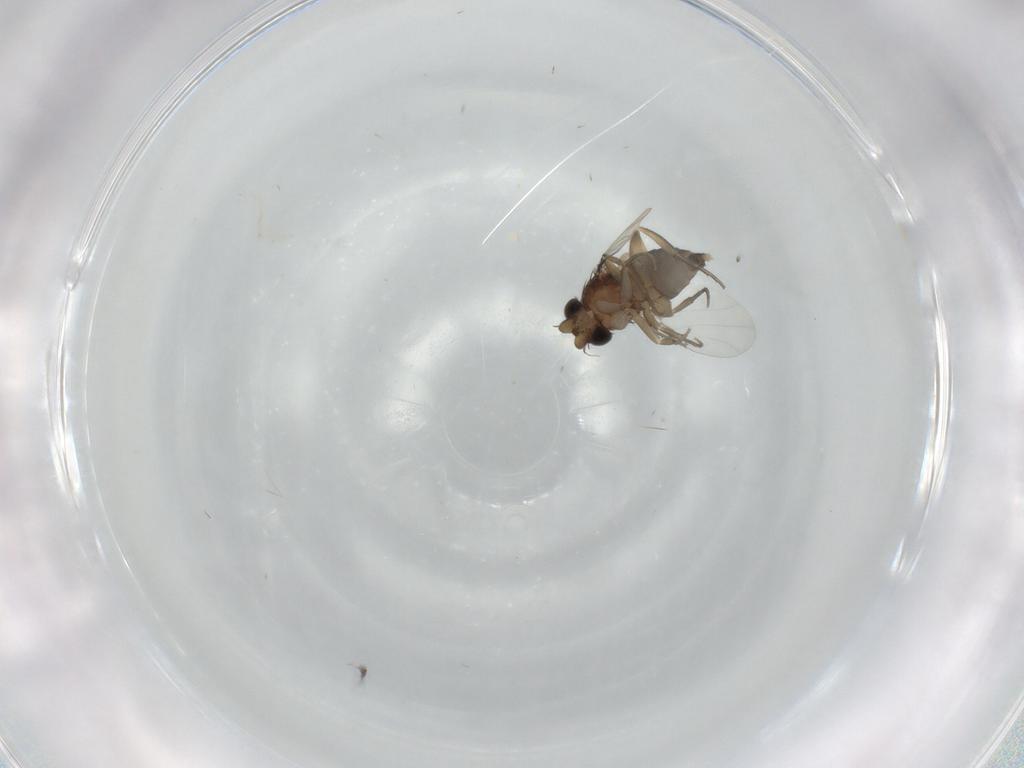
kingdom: Animalia
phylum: Arthropoda
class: Insecta
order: Diptera
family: Phoridae
